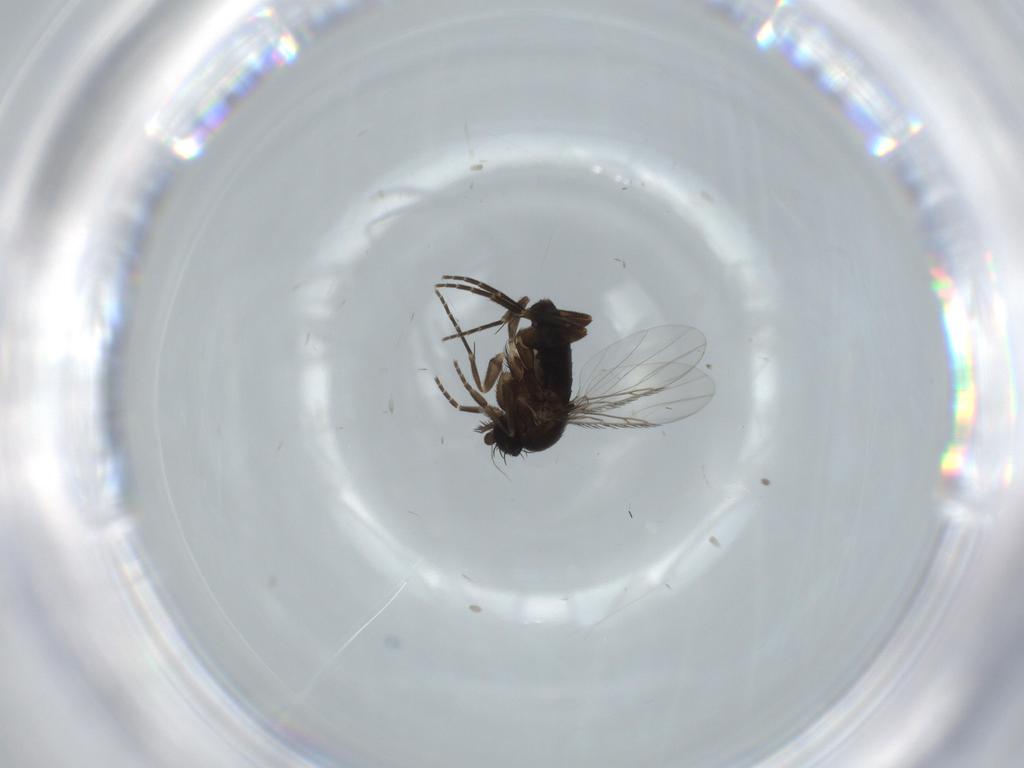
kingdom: Animalia
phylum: Arthropoda
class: Insecta
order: Diptera
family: Phoridae
